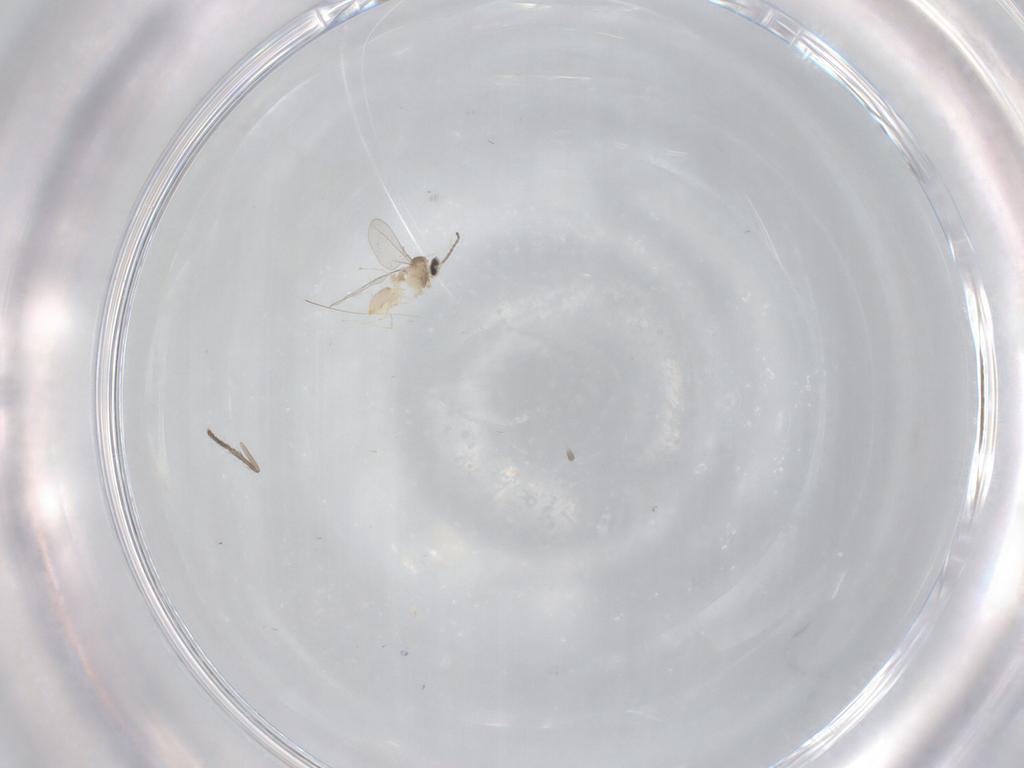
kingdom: Animalia
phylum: Arthropoda
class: Insecta
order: Diptera
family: Cecidomyiidae
